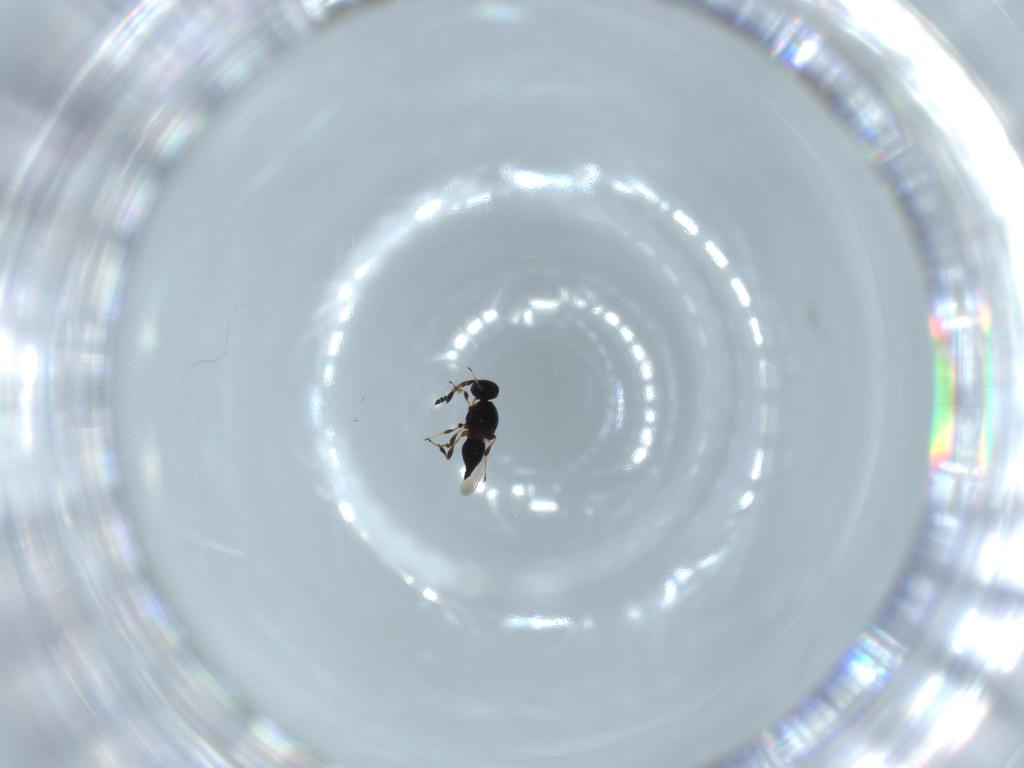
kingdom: Animalia
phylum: Arthropoda
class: Insecta
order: Hymenoptera
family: Platygastridae
